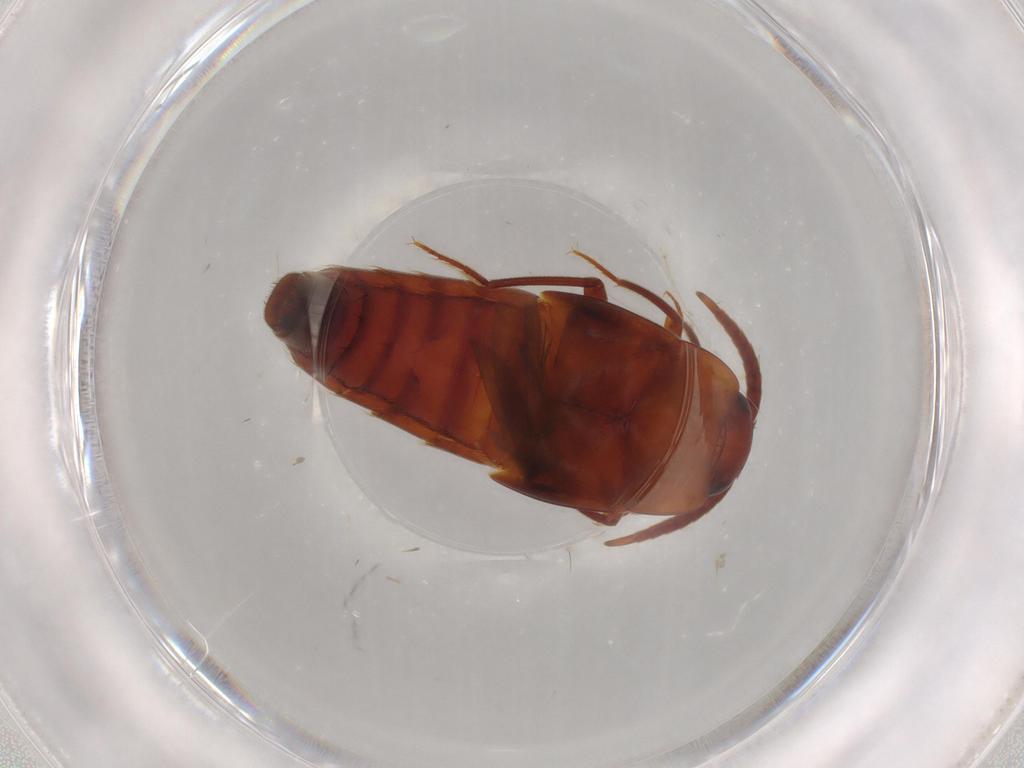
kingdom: Animalia
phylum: Arthropoda
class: Insecta
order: Coleoptera
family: Staphylinidae
